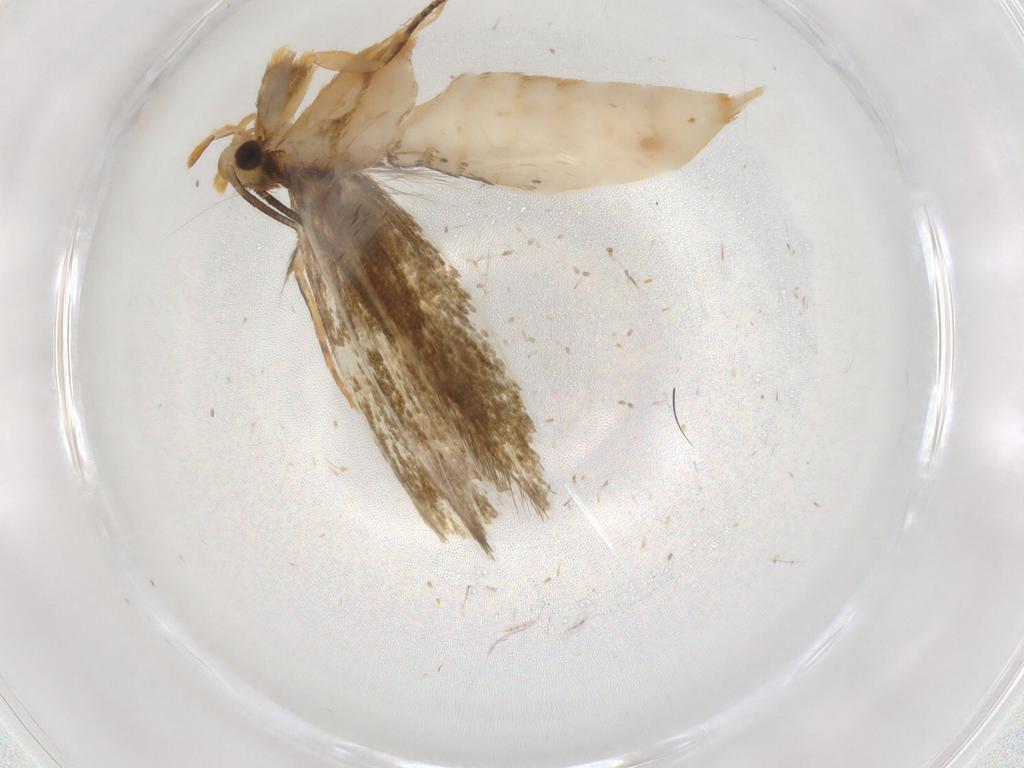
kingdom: Animalia
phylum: Arthropoda
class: Insecta
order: Lepidoptera
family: Tineidae
